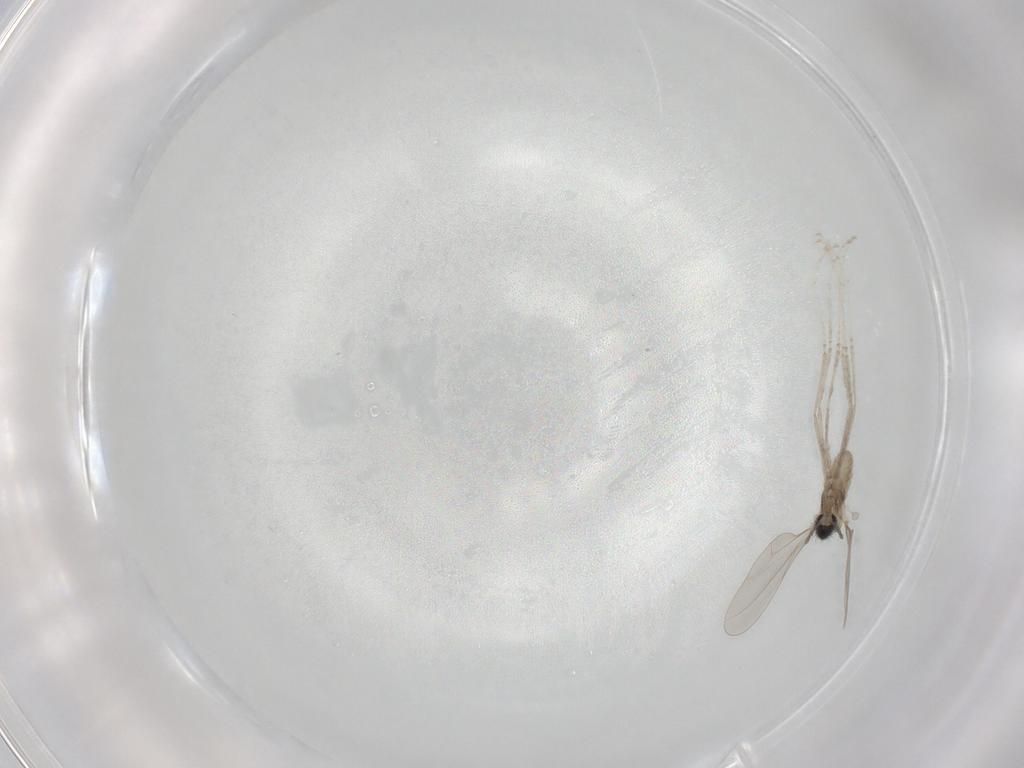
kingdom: Animalia
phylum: Arthropoda
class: Insecta
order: Diptera
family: Cecidomyiidae
